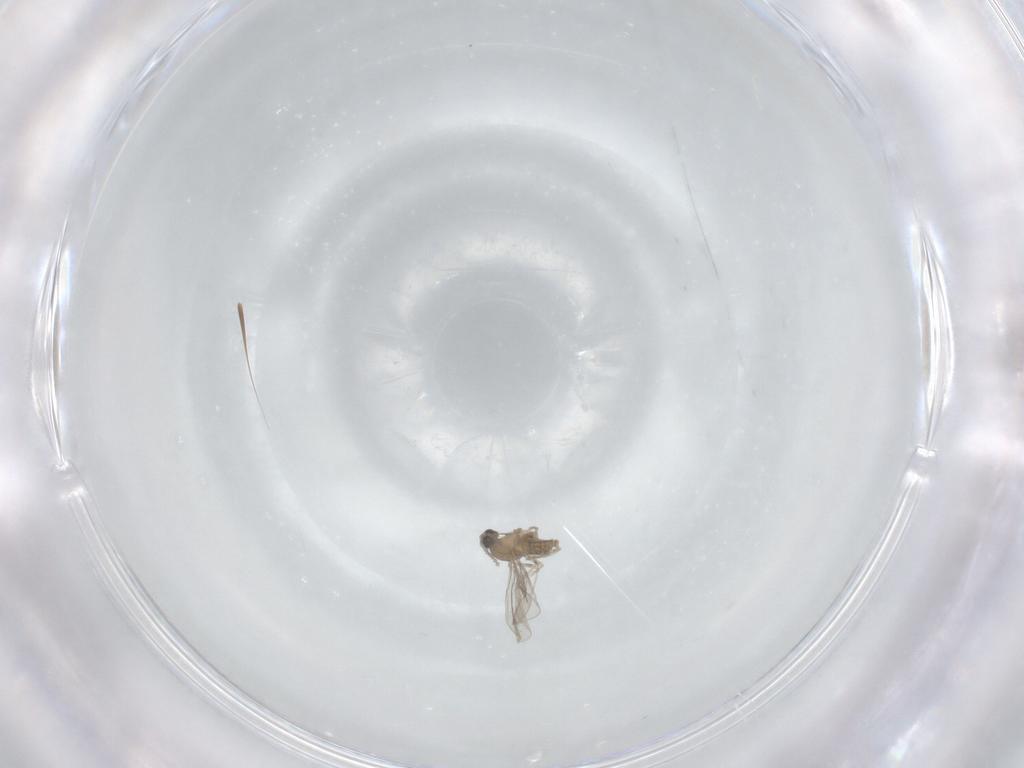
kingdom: Animalia
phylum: Arthropoda
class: Insecta
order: Diptera
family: Cecidomyiidae
